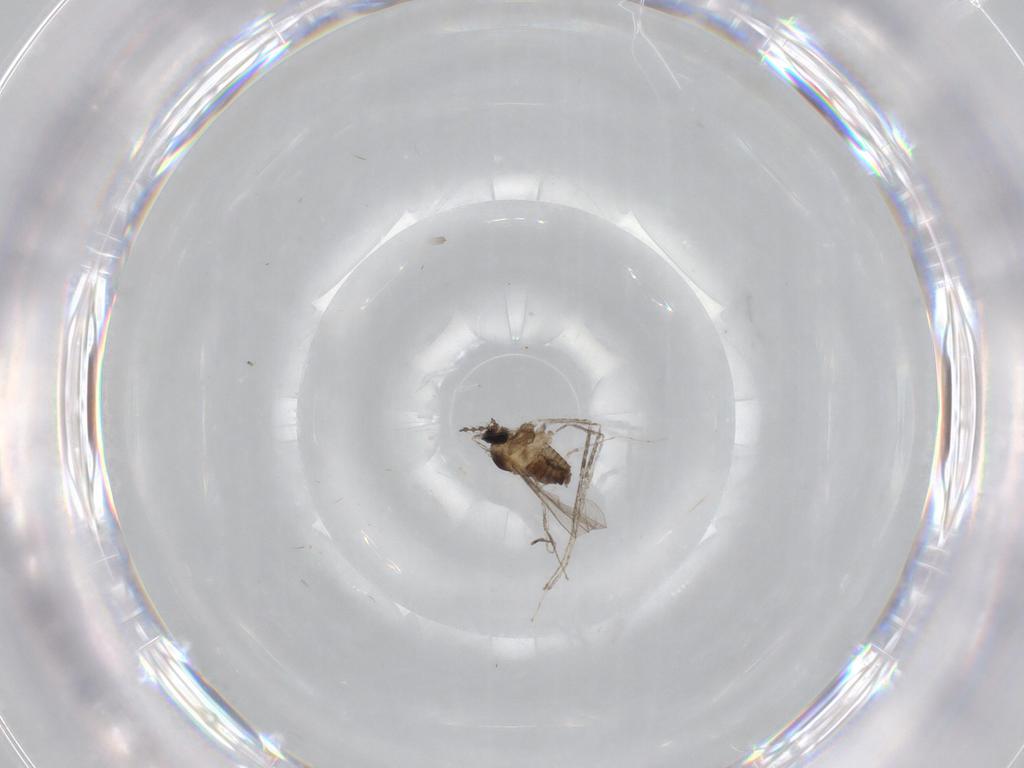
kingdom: Animalia
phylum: Arthropoda
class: Insecta
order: Diptera
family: Cecidomyiidae
